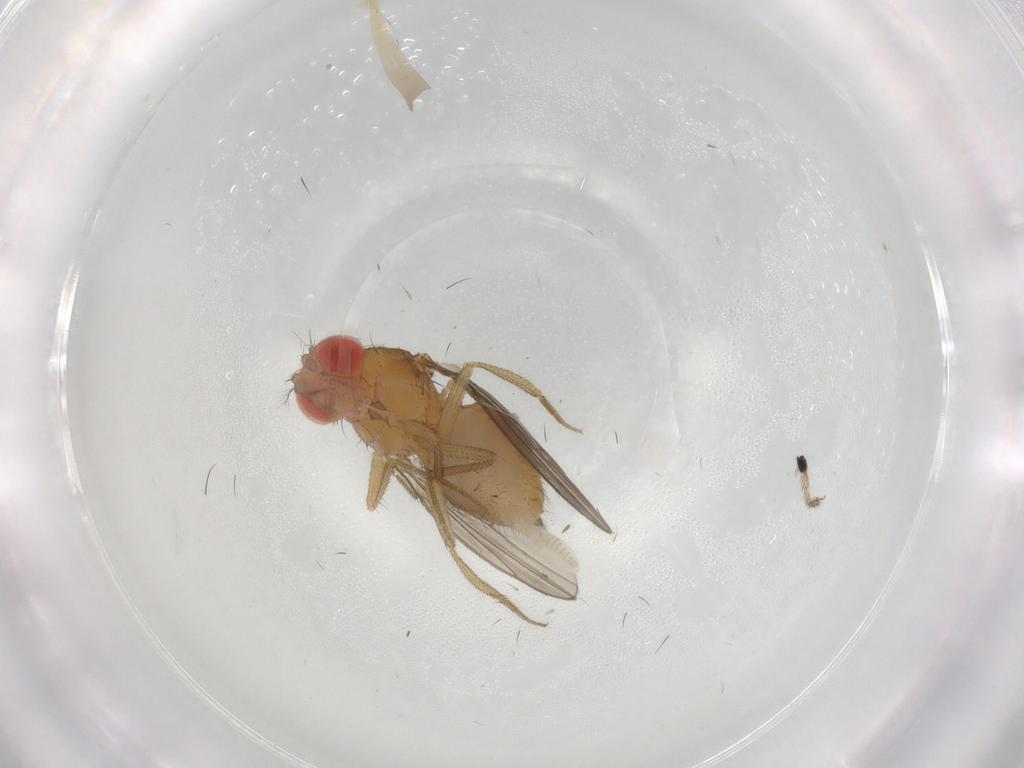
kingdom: Animalia
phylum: Arthropoda
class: Insecta
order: Diptera
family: Drosophilidae
